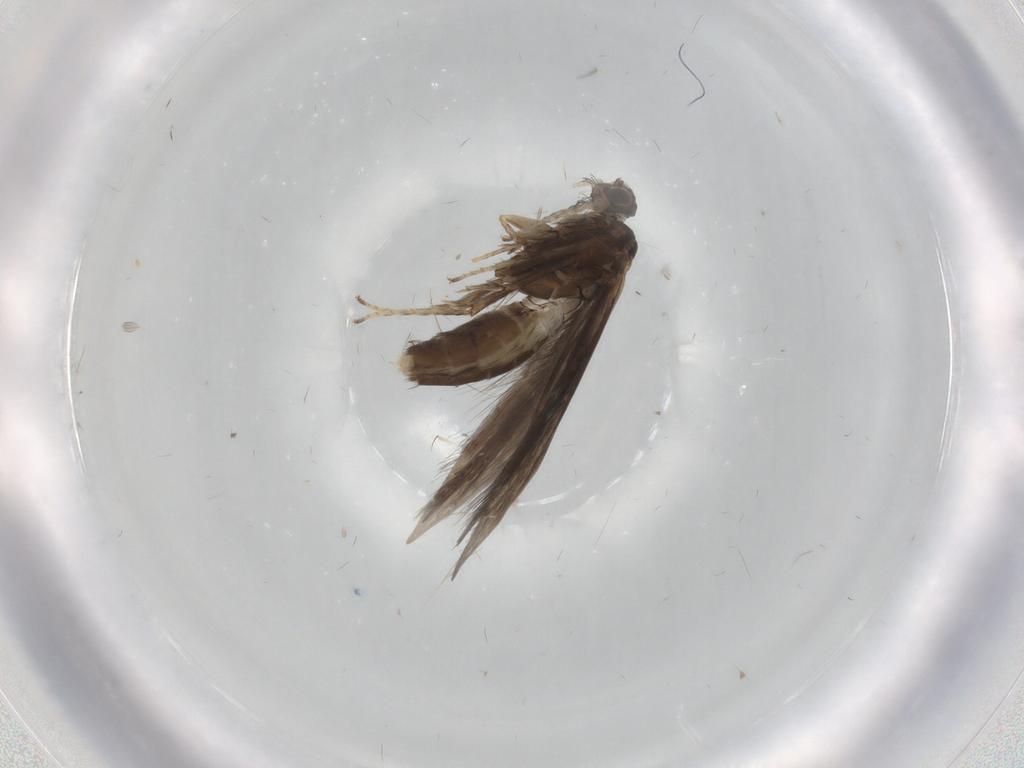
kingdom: Animalia
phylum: Arthropoda
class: Insecta
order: Trichoptera
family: Hydroptilidae
